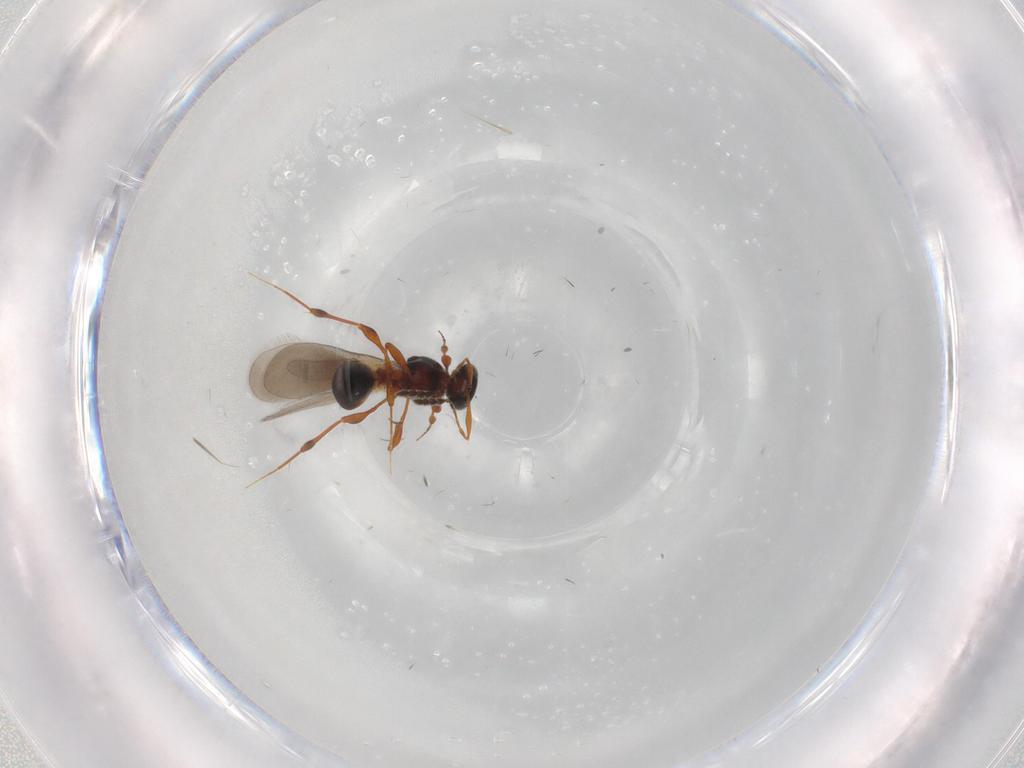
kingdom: Animalia
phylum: Arthropoda
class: Insecta
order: Hymenoptera
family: Platygastridae
